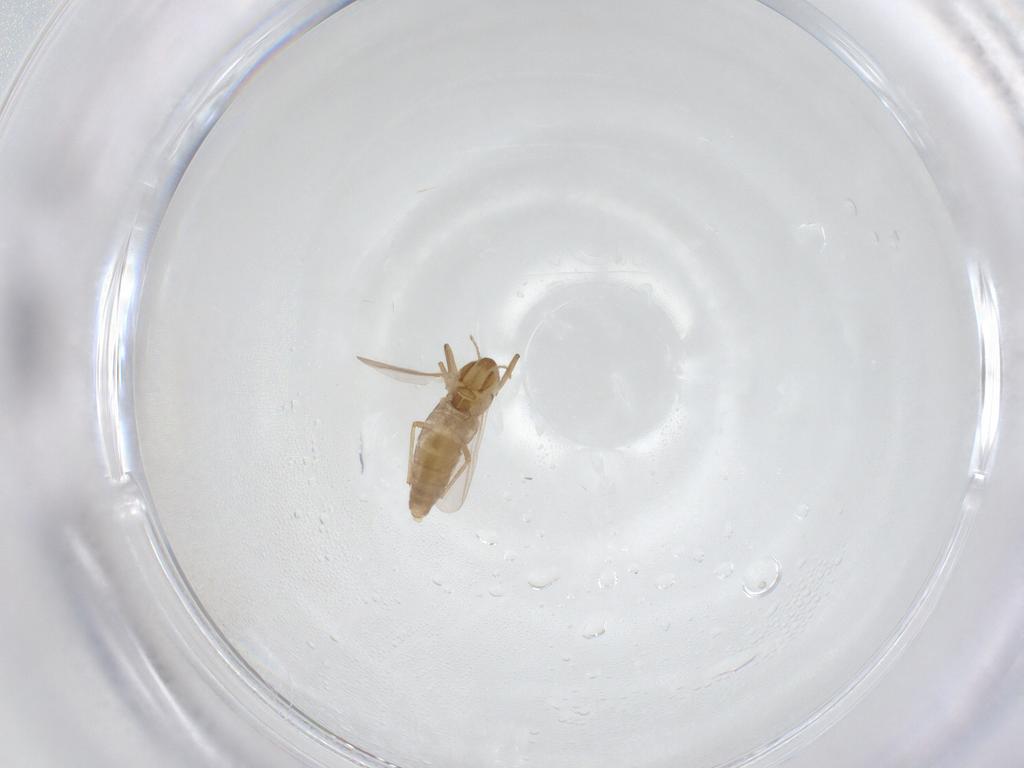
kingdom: Animalia
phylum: Arthropoda
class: Insecta
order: Diptera
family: Chironomidae
